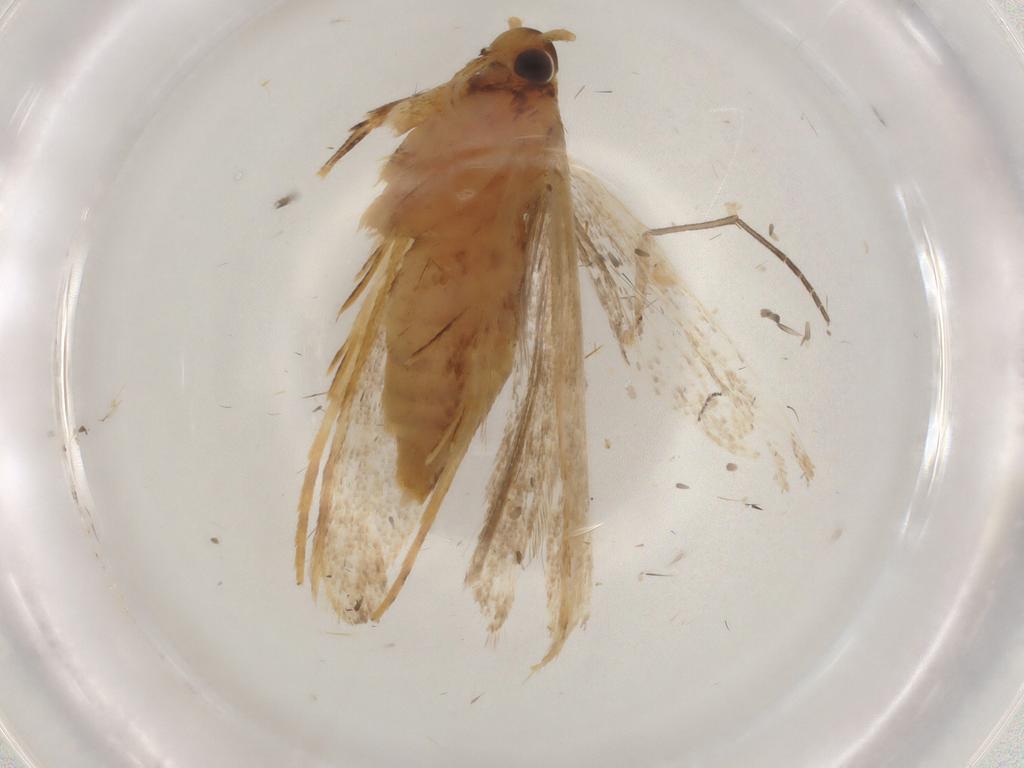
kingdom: Animalia
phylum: Arthropoda
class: Insecta
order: Lepidoptera
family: Lecithoceridae
